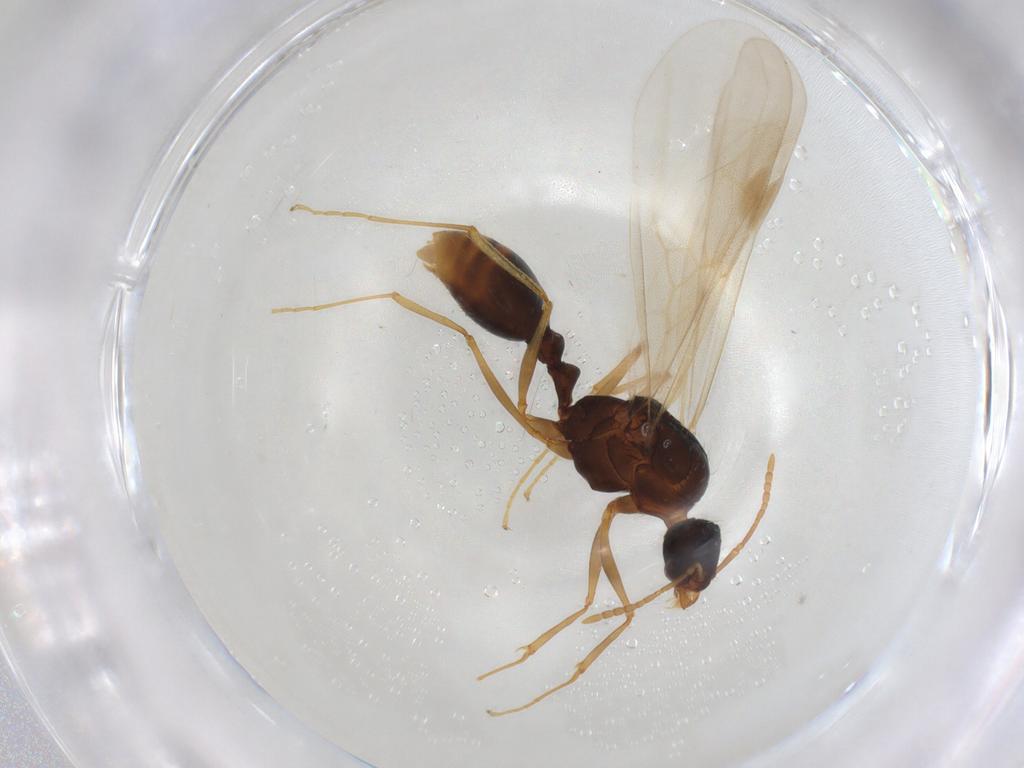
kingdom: Animalia
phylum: Arthropoda
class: Insecta
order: Hymenoptera
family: Formicidae
